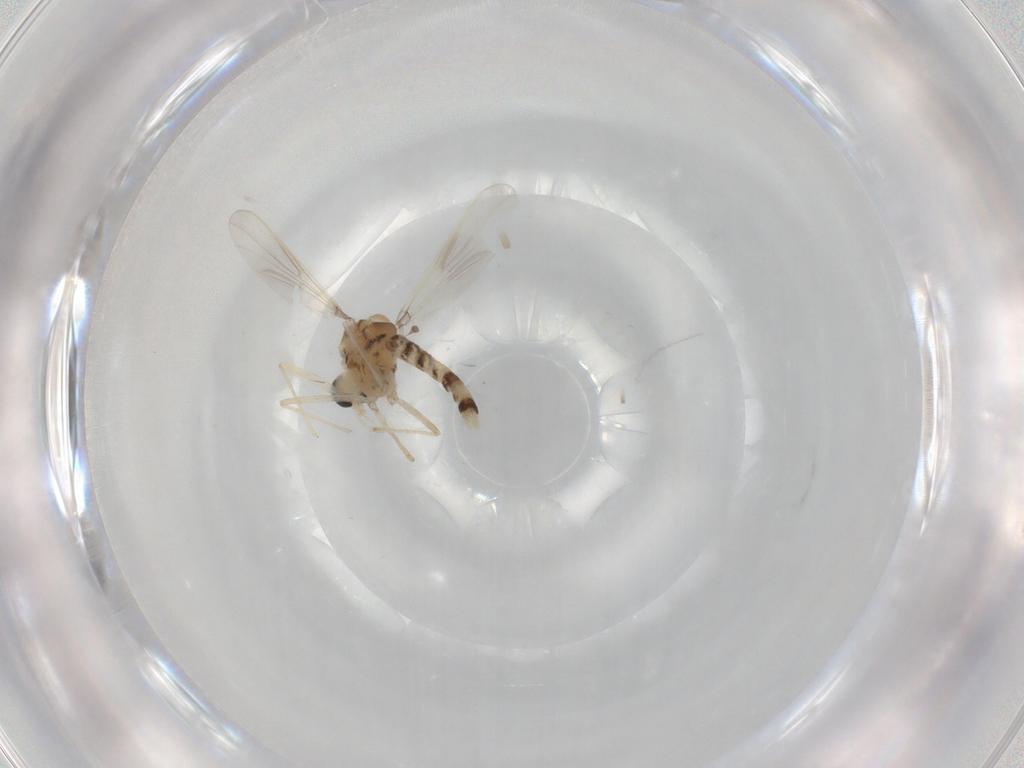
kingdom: Animalia
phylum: Arthropoda
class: Insecta
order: Diptera
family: Chironomidae
